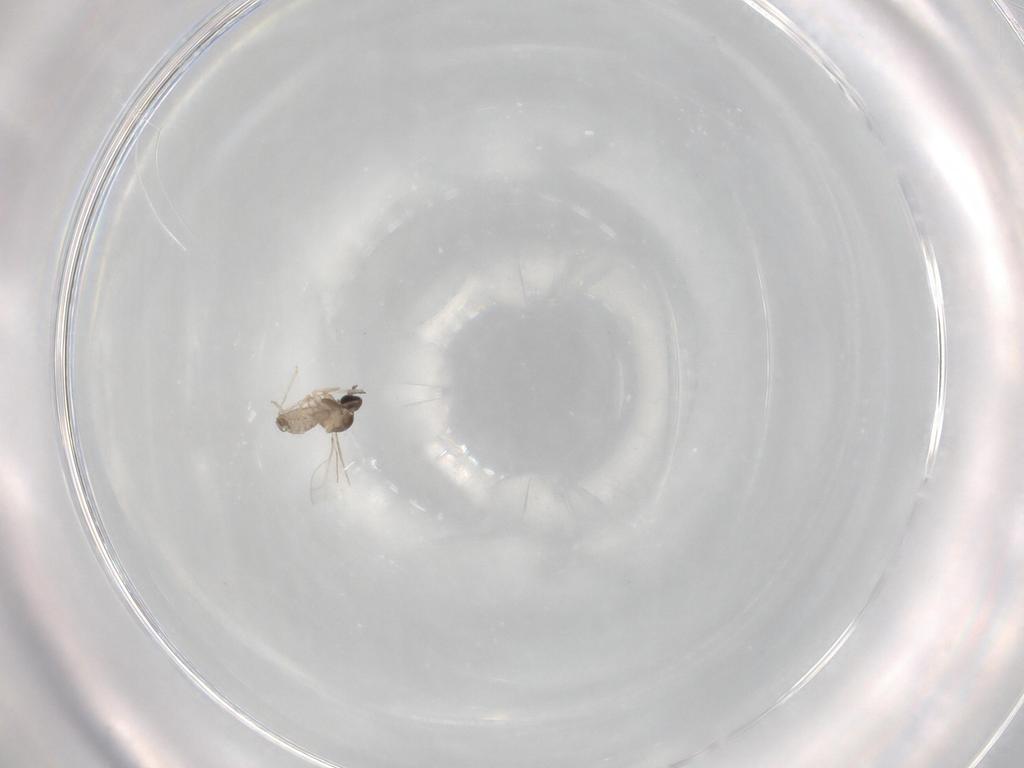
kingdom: Animalia
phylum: Arthropoda
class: Insecta
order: Diptera
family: Cecidomyiidae
